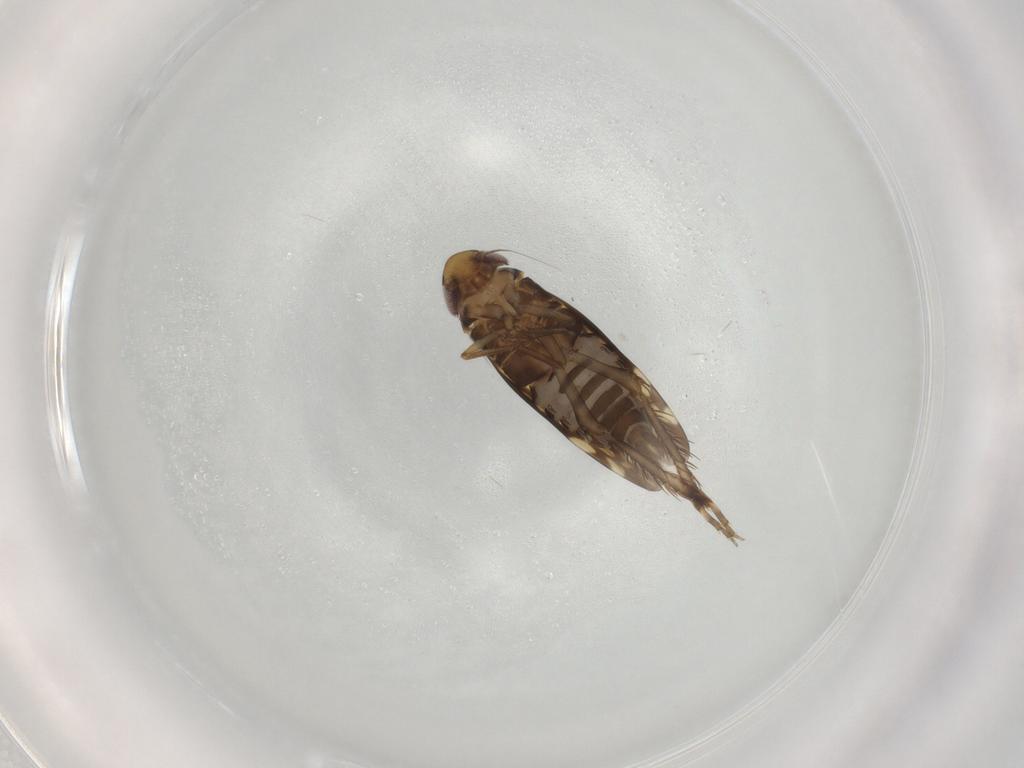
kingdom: Animalia
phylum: Arthropoda
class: Insecta
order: Hemiptera
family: Cicadellidae
